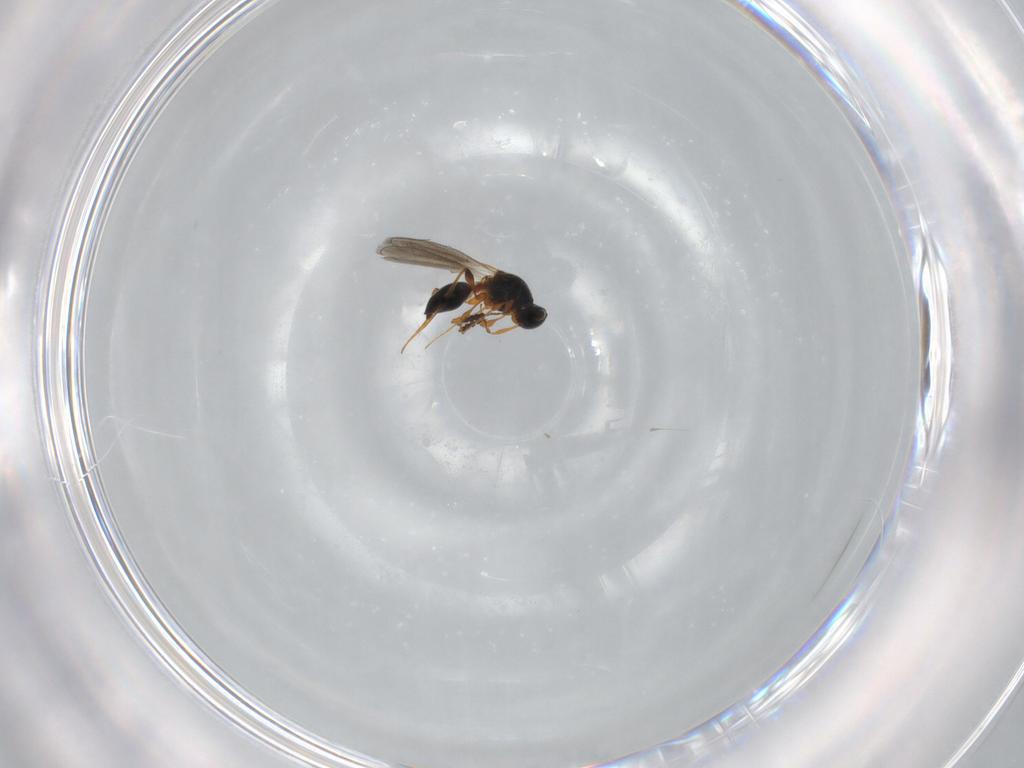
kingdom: Animalia
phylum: Arthropoda
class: Insecta
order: Hymenoptera
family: Platygastridae
